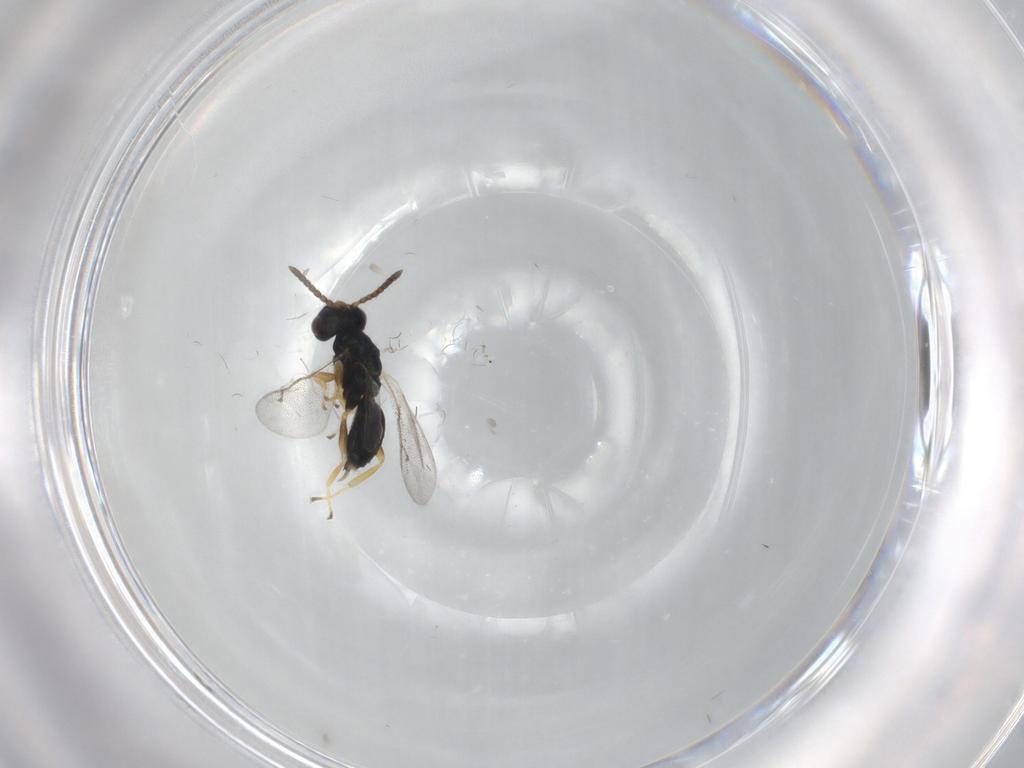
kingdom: Animalia
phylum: Arthropoda
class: Insecta
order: Hymenoptera
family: Pteromalidae
